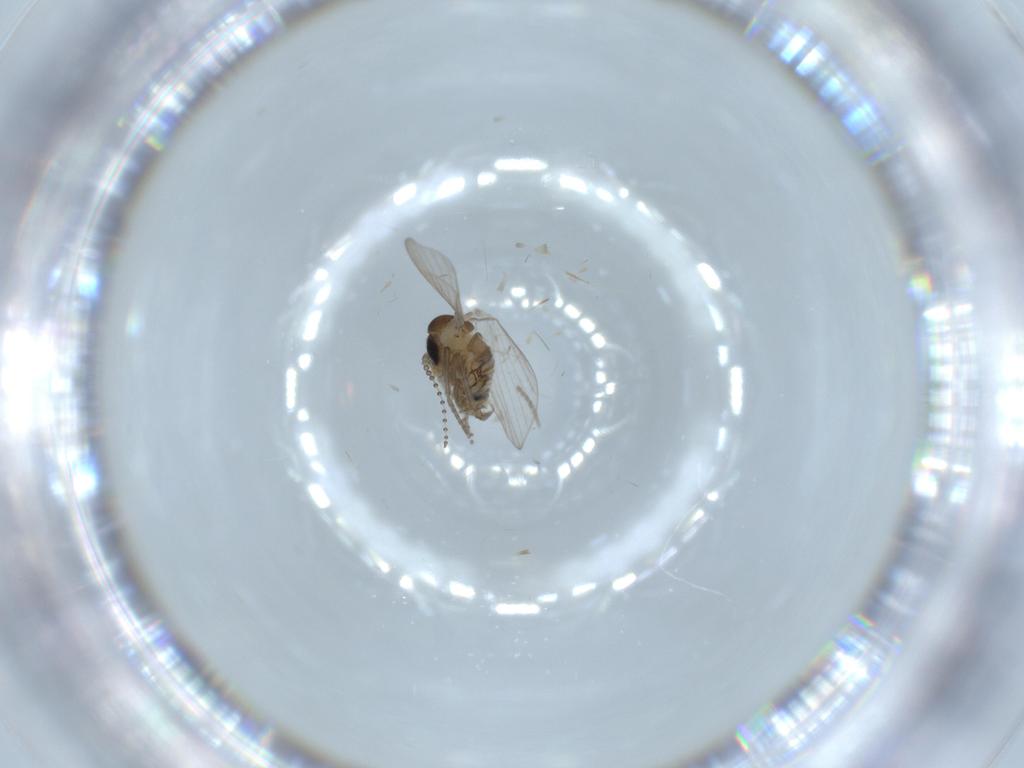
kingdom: Animalia
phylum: Arthropoda
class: Insecta
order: Diptera
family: Psychodidae
